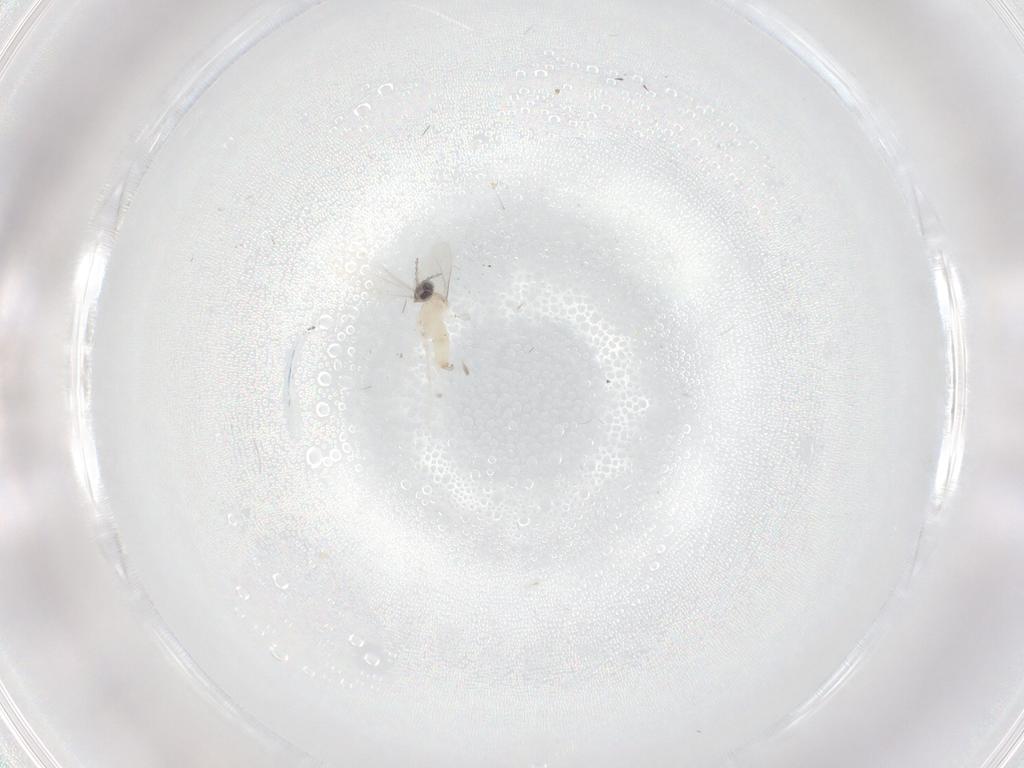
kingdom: Animalia
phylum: Arthropoda
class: Insecta
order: Diptera
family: Cecidomyiidae
